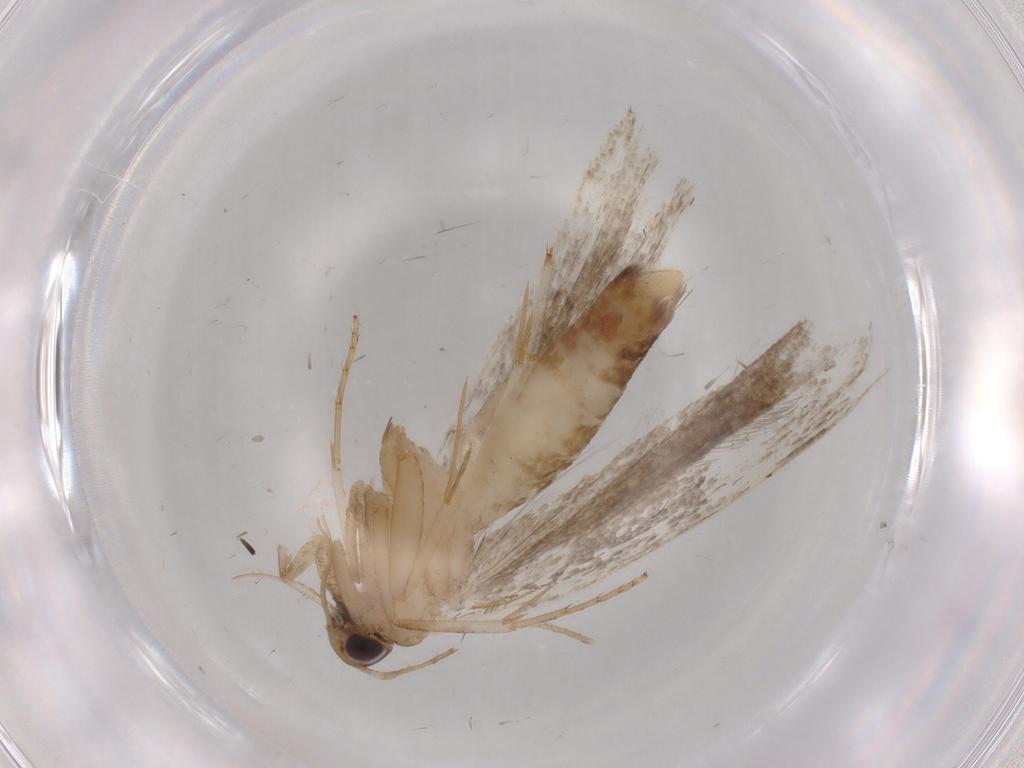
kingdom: Animalia
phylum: Arthropoda
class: Insecta
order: Lepidoptera
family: Gelechiidae
